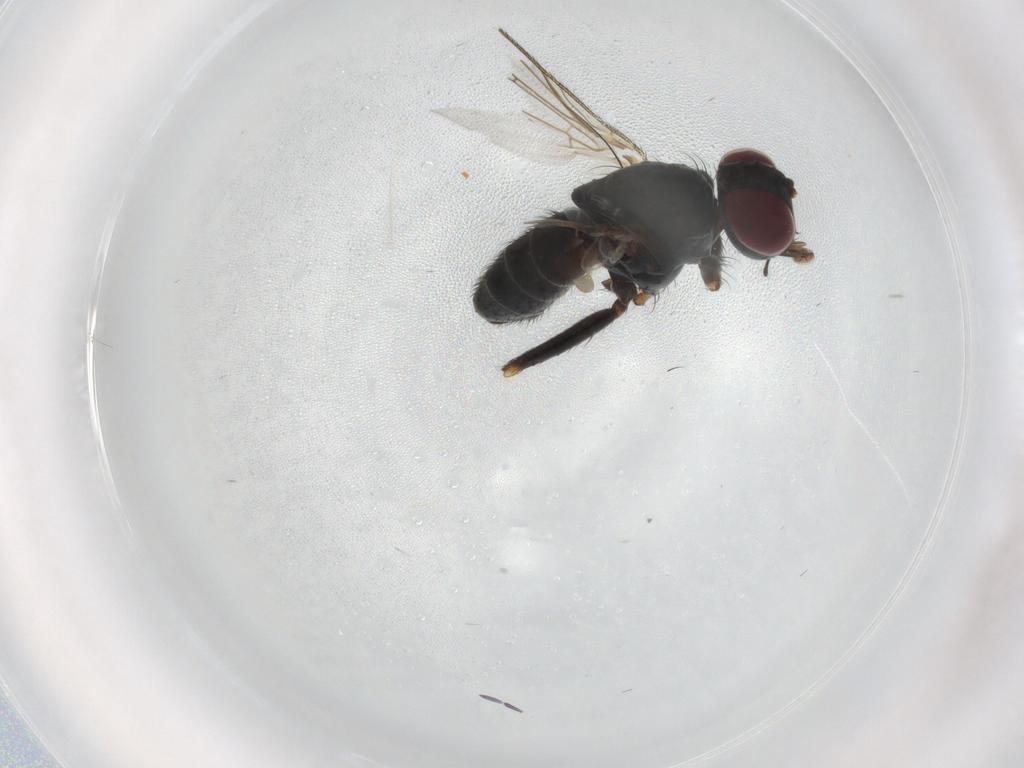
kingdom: Animalia
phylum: Arthropoda
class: Insecta
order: Diptera
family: Muscidae
